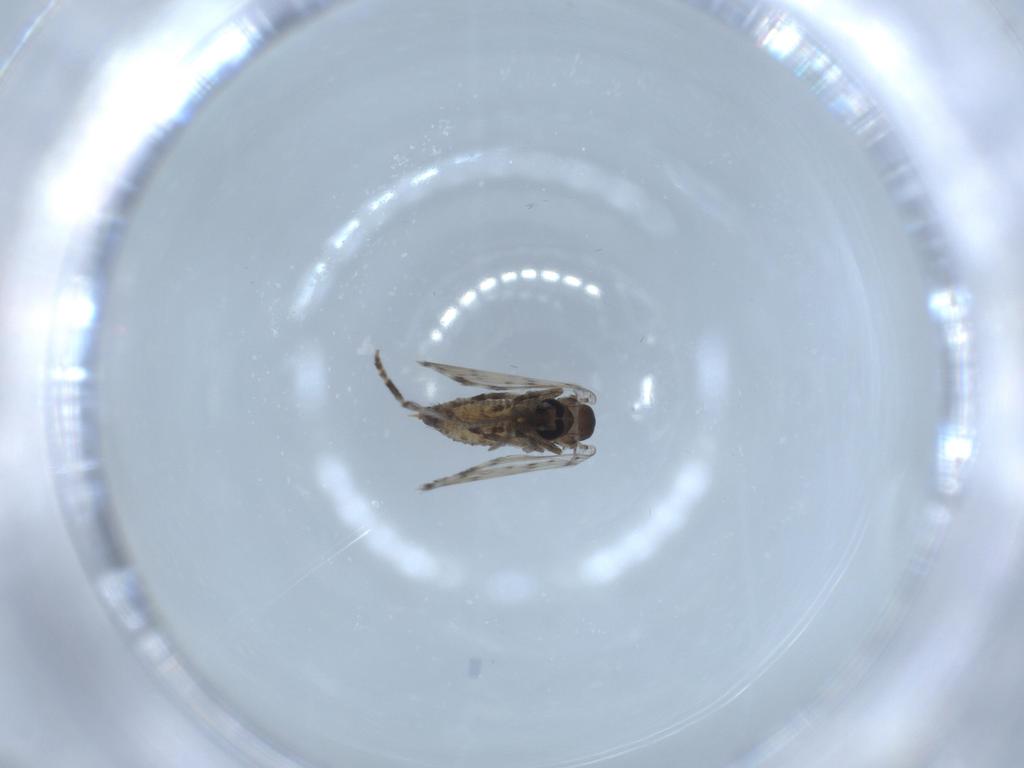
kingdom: Animalia
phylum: Arthropoda
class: Insecta
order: Diptera
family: Psychodidae
